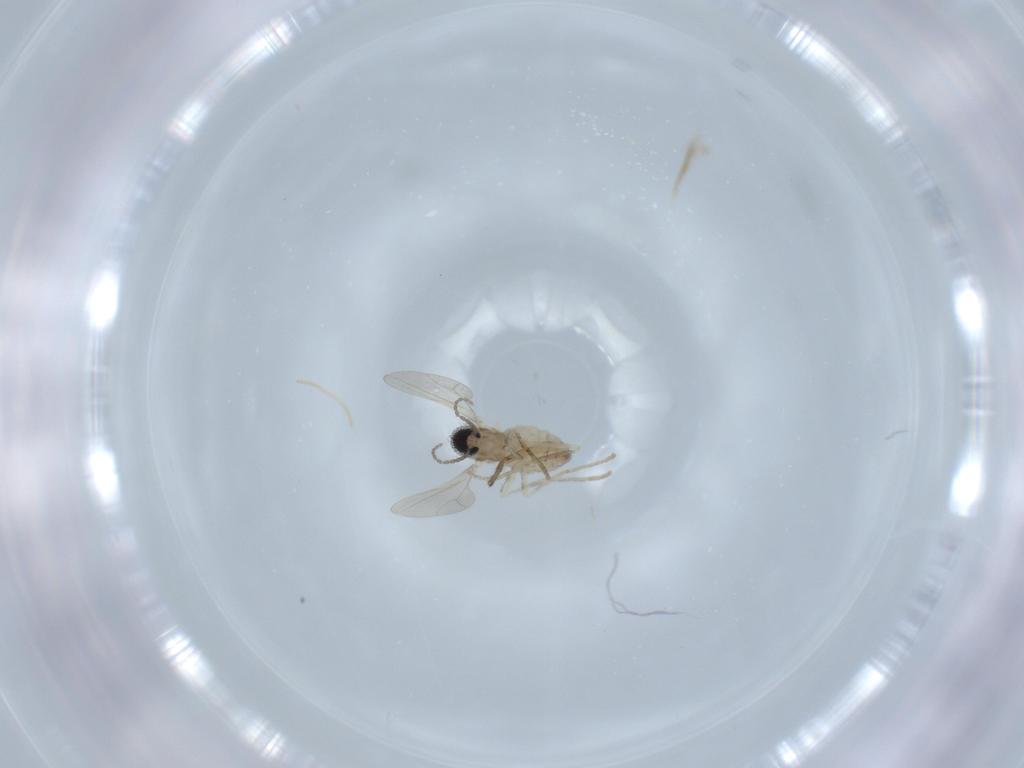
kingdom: Animalia
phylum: Arthropoda
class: Insecta
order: Diptera
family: Cecidomyiidae
